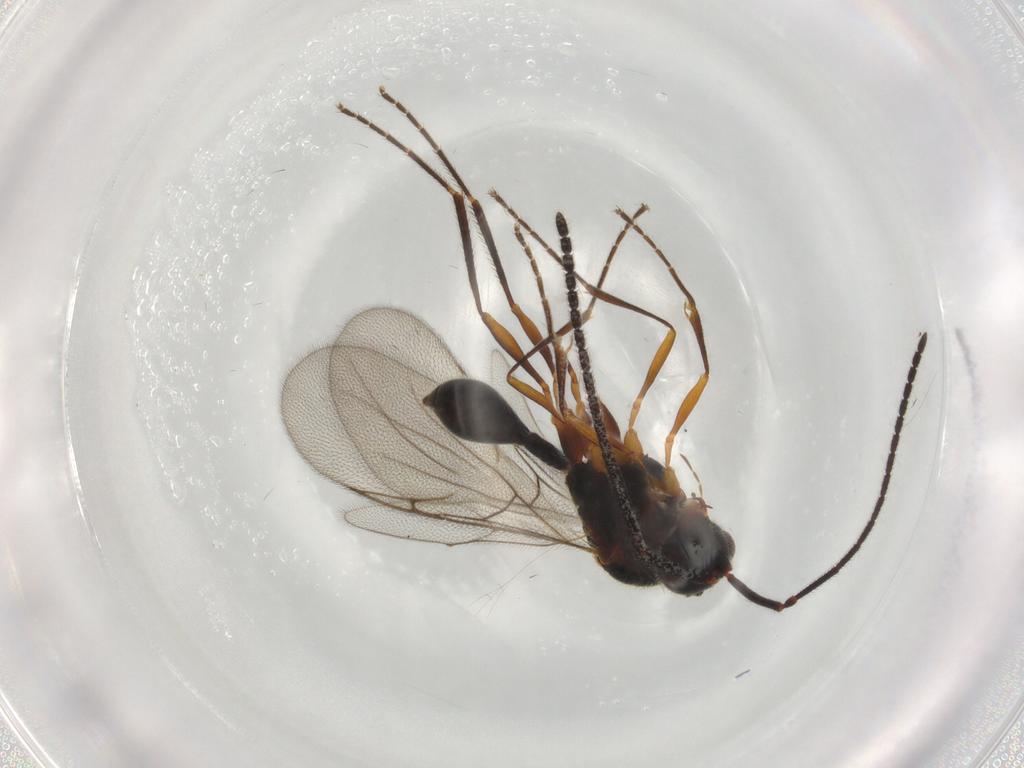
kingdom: Animalia
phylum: Arthropoda
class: Insecta
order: Hymenoptera
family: Diapriidae
